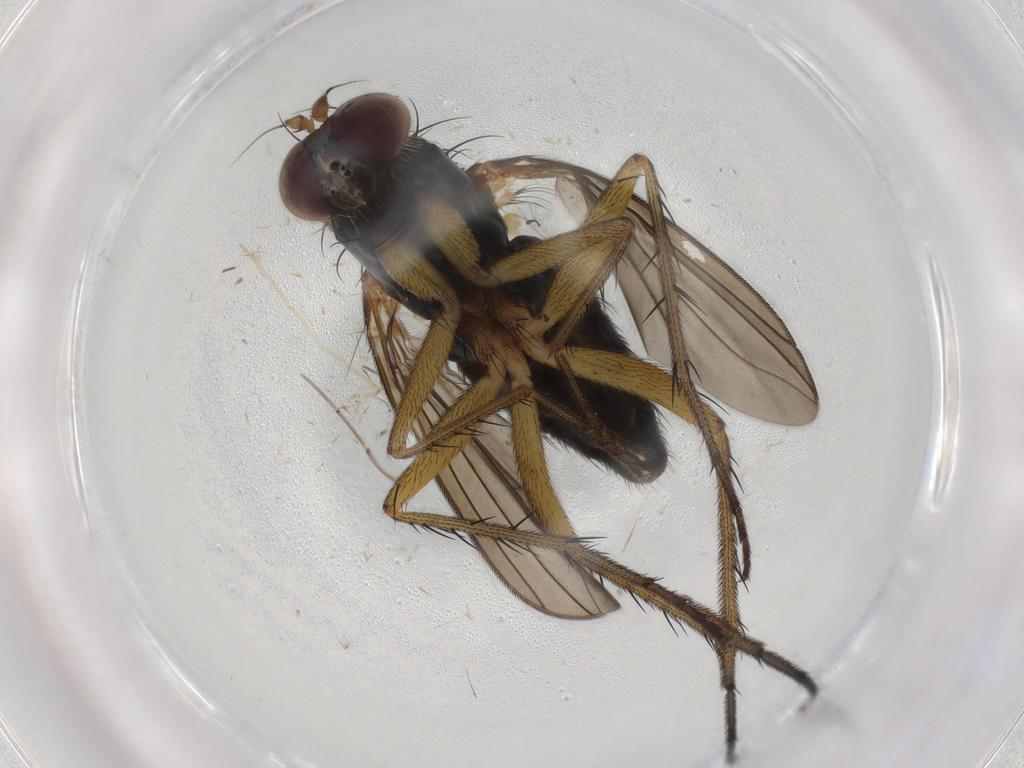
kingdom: Animalia
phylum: Arthropoda
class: Insecta
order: Diptera
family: Dolichopodidae
